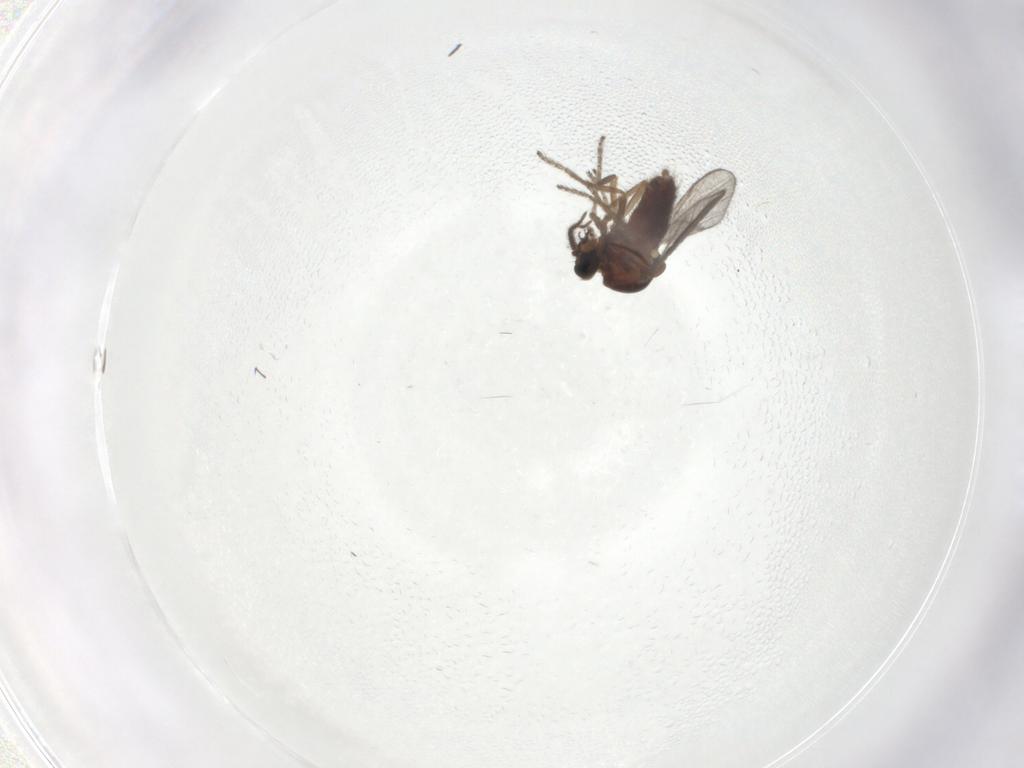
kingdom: Animalia
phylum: Arthropoda
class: Insecta
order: Diptera
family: Ceratopogonidae
